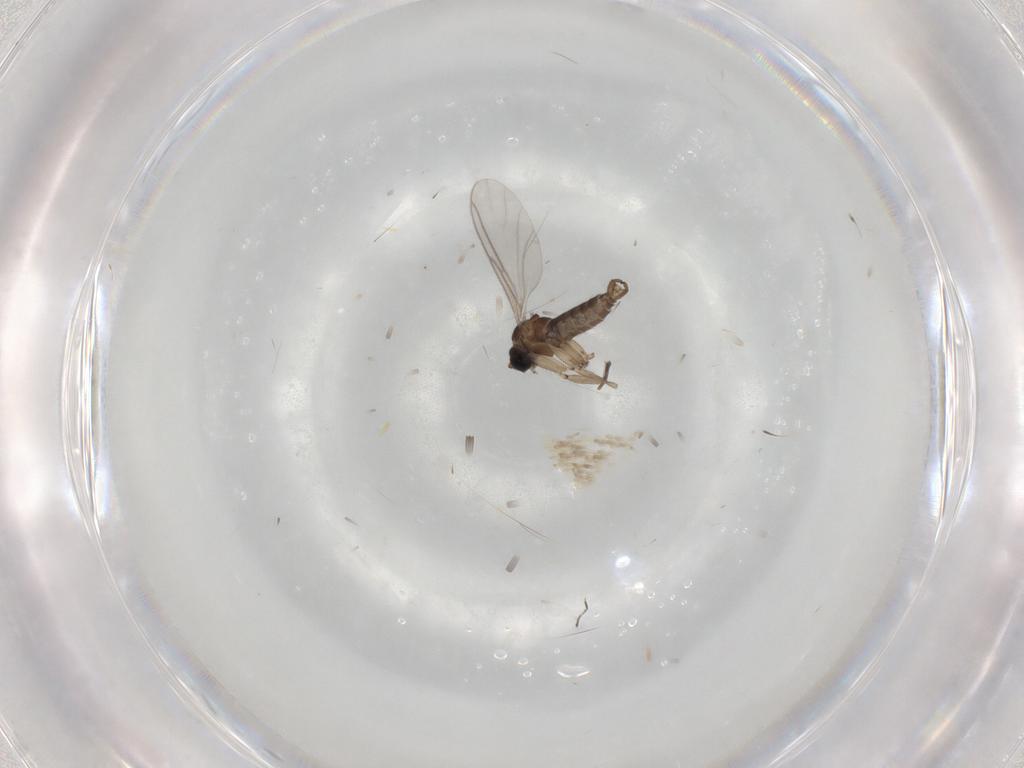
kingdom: Animalia
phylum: Arthropoda
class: Insecta
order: Diptera
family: Sciaridae
